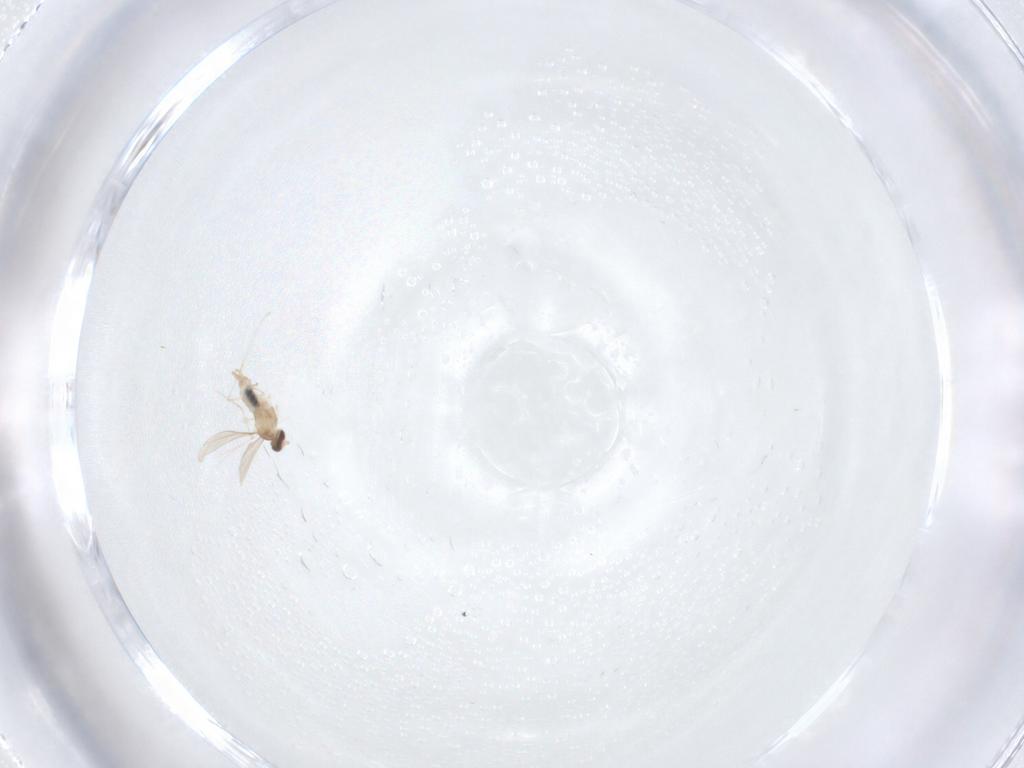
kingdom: Animalia
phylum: Arthropoda
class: Insecta
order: Diptera
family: Cecidomyiidae
